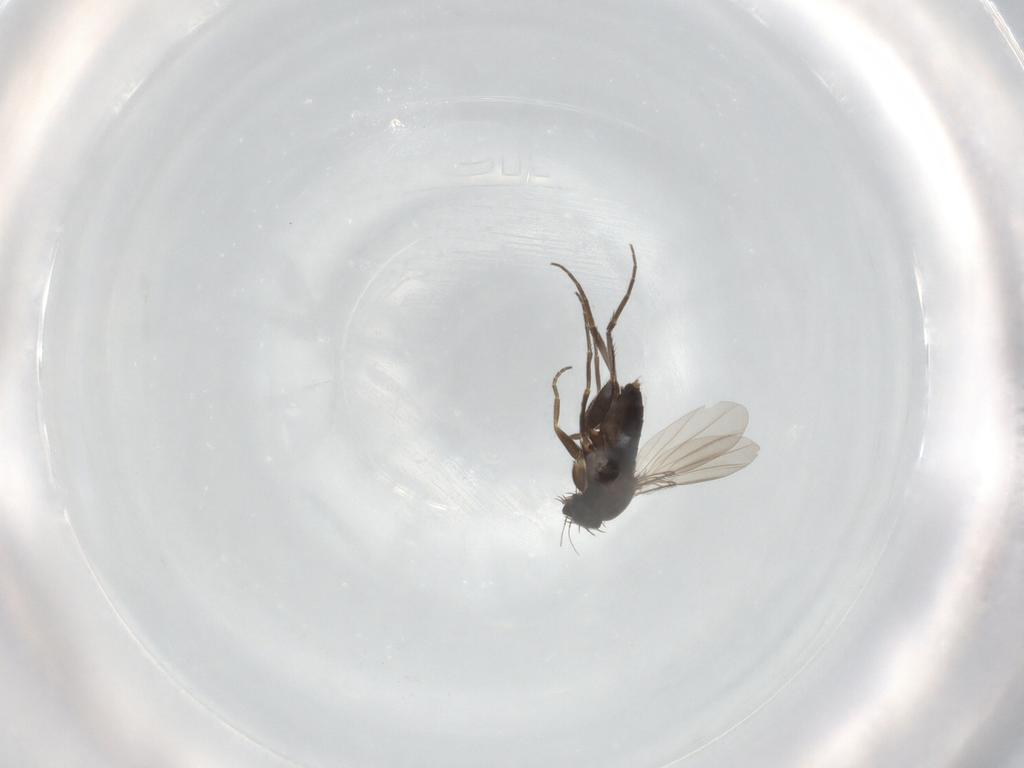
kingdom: Animalia
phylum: Arthropoda
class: Insecta
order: Diptera
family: Phoridae
